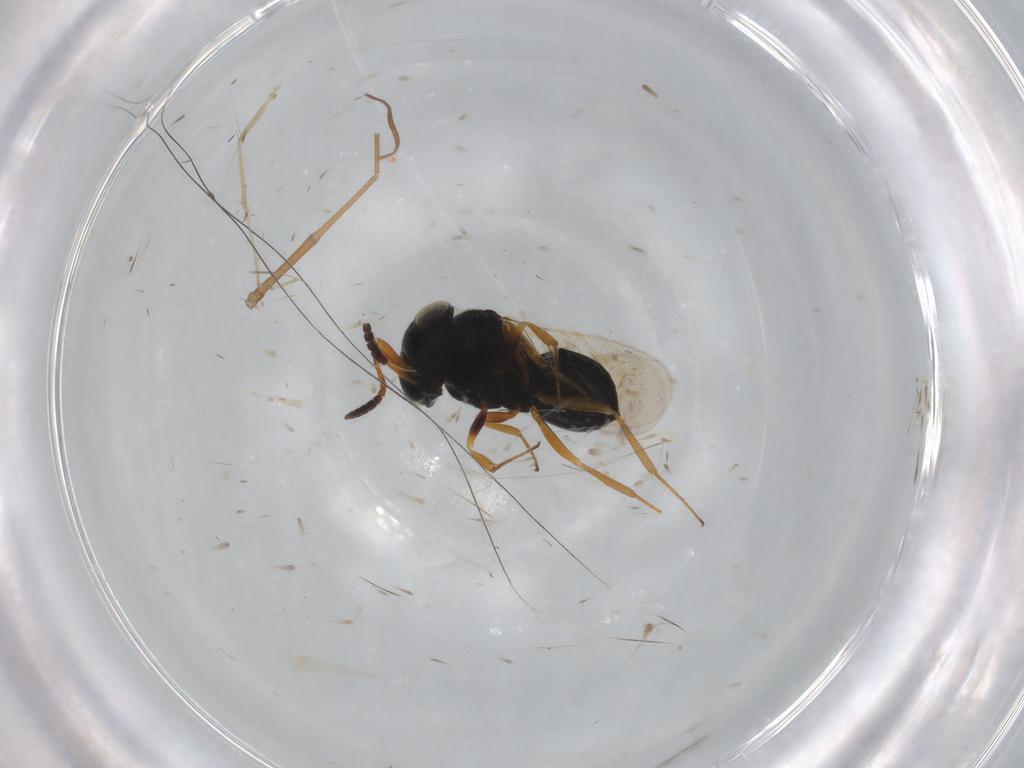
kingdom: Animalia
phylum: Arthropoda
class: Insecta
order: Hymenoptera
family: Scelionidae
